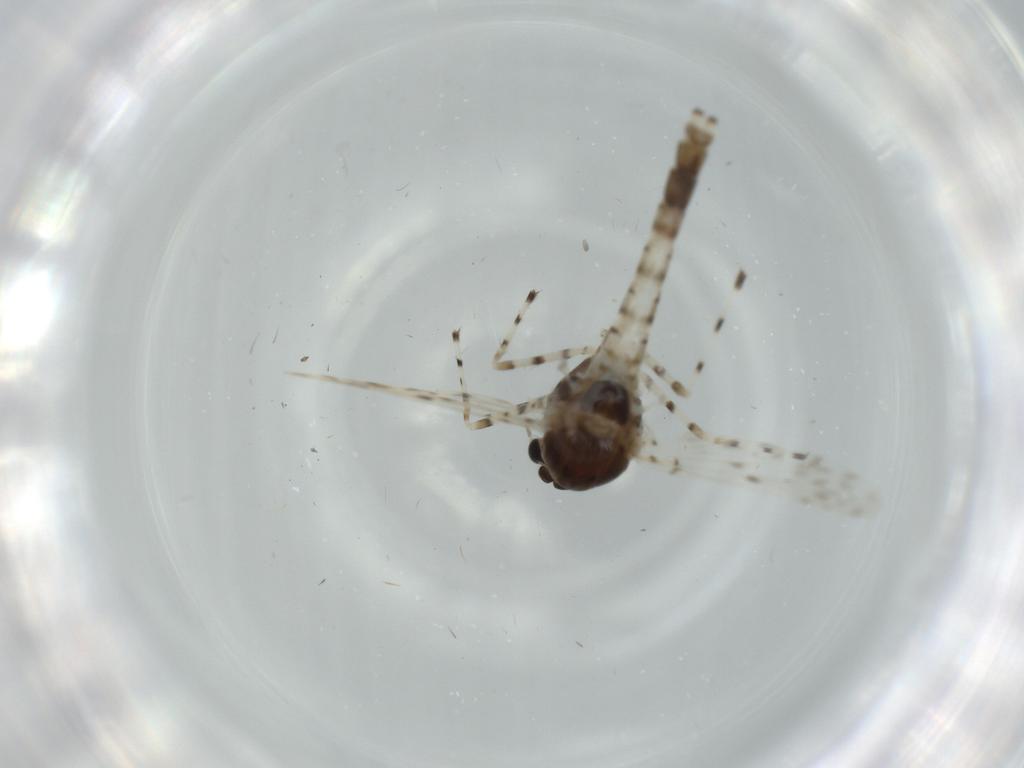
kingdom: Animalia
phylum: Arthropoda
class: Insecta
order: Diptera
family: Chironomidae
